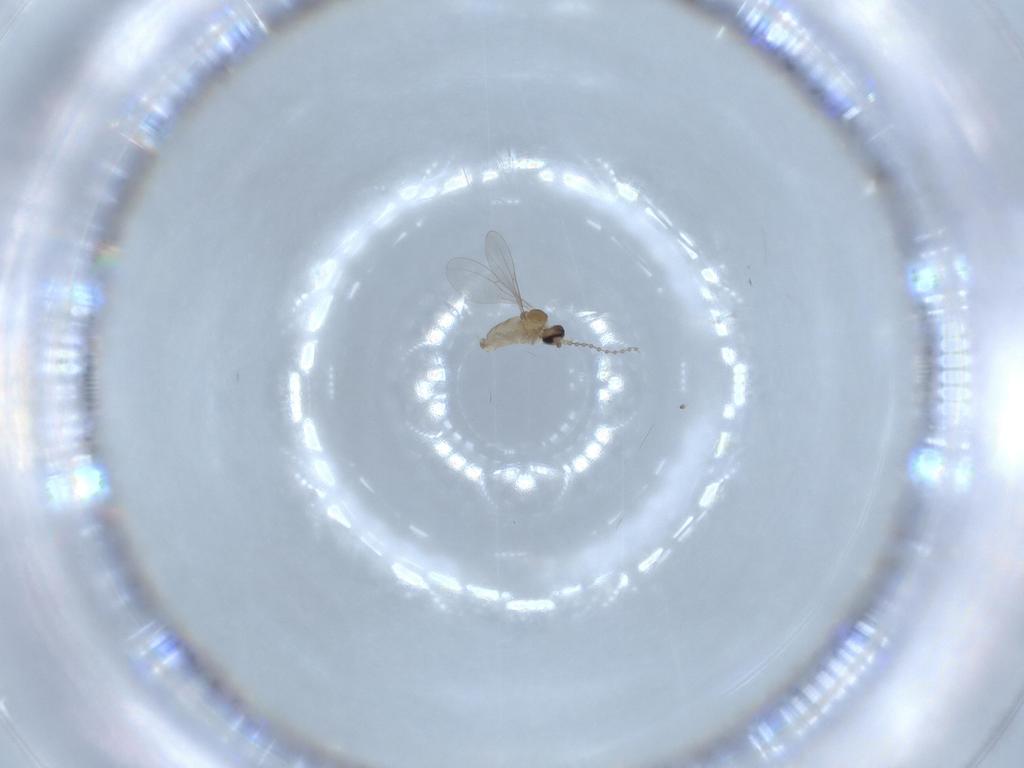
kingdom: Animalia
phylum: Arthropoda
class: Insecta
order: Diptera
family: Cecidomyiidae
